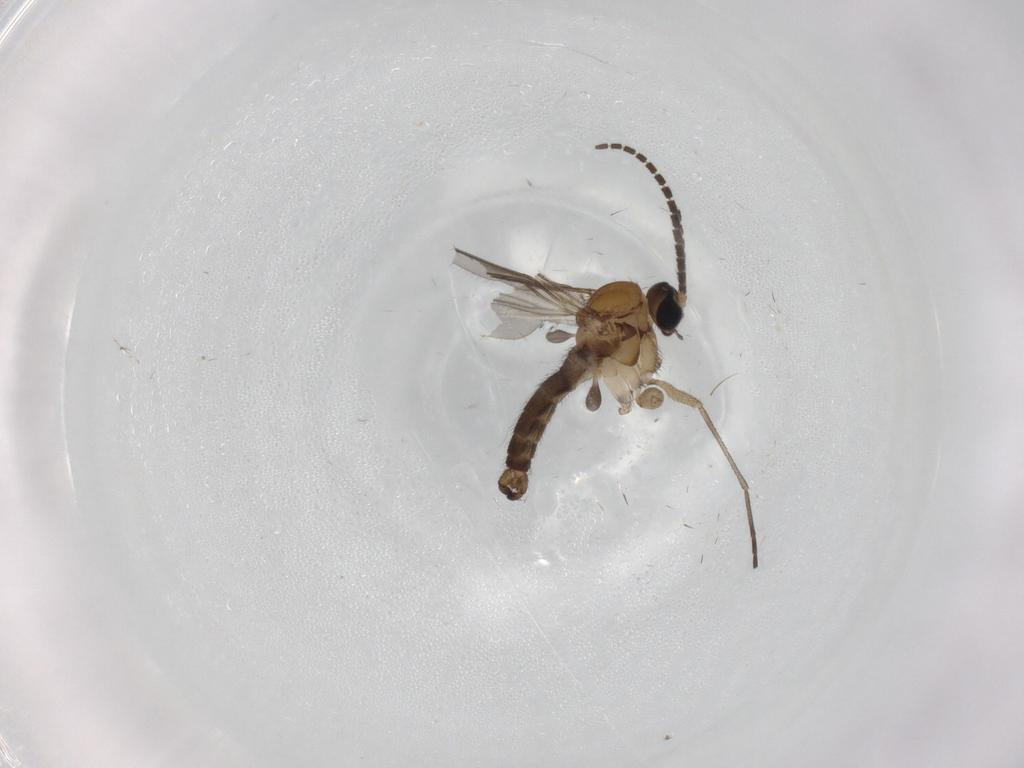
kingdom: Animalia
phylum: Arthropoda
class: Insecta
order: Diptera
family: Sciaridae
